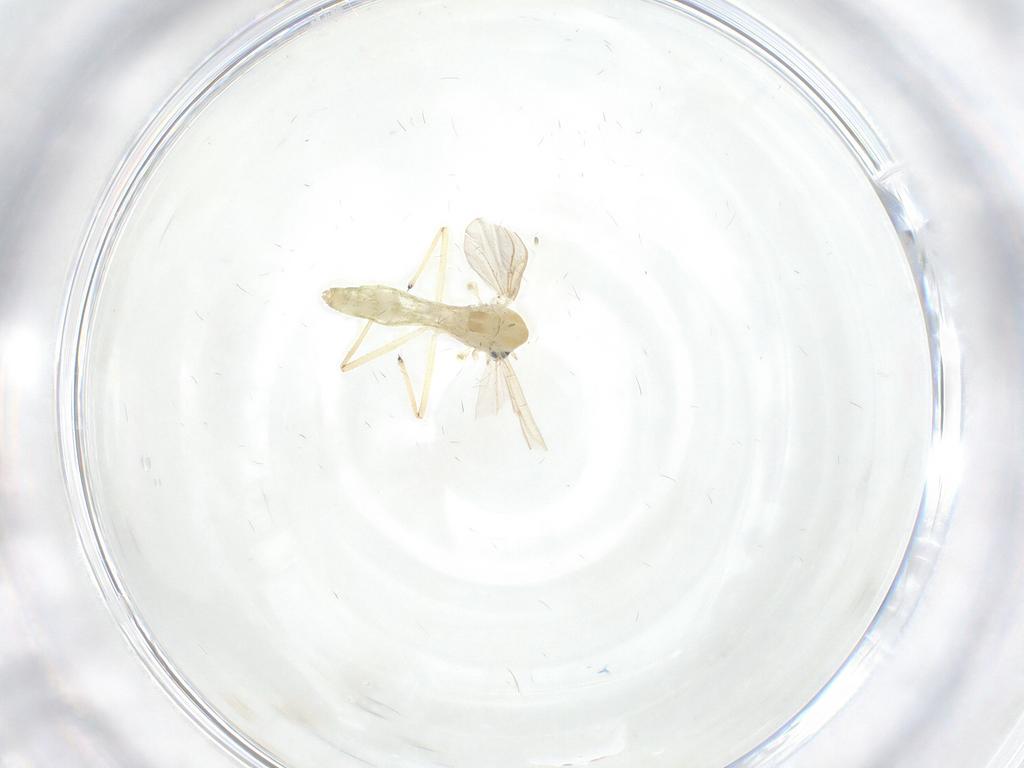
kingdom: Animalia
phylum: Arthropoda
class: Insecta
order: Diptera
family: Chironomidae
